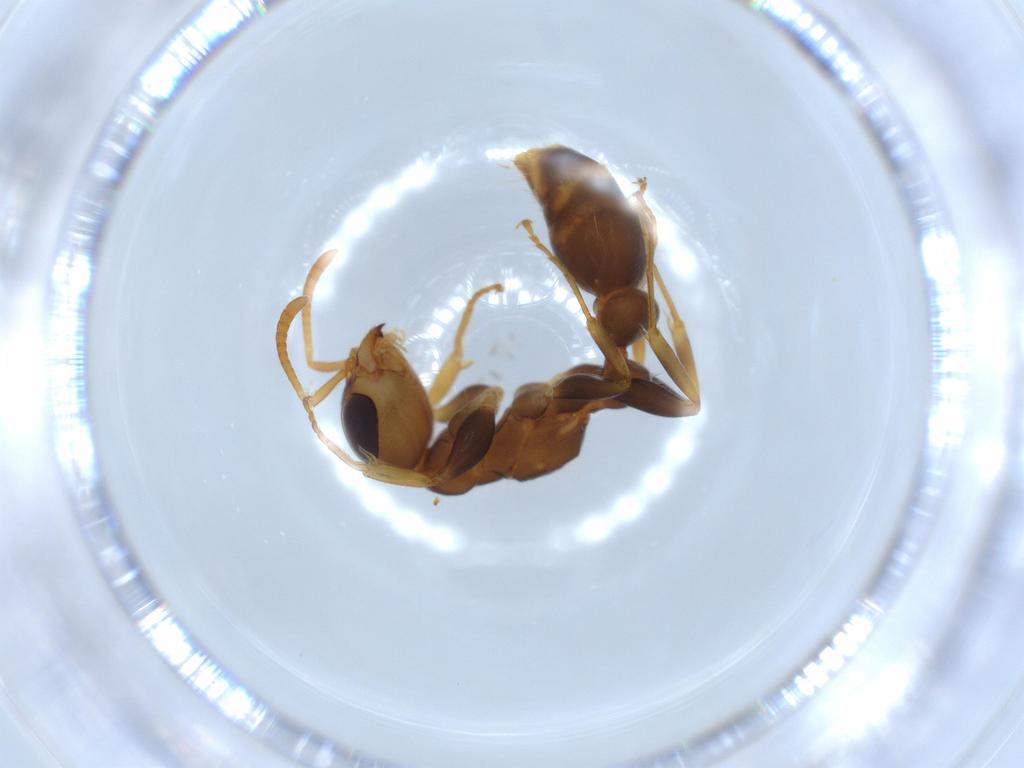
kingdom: Animalia
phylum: Arthropoda
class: Insecta
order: Hymenoptera
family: Formicidae
